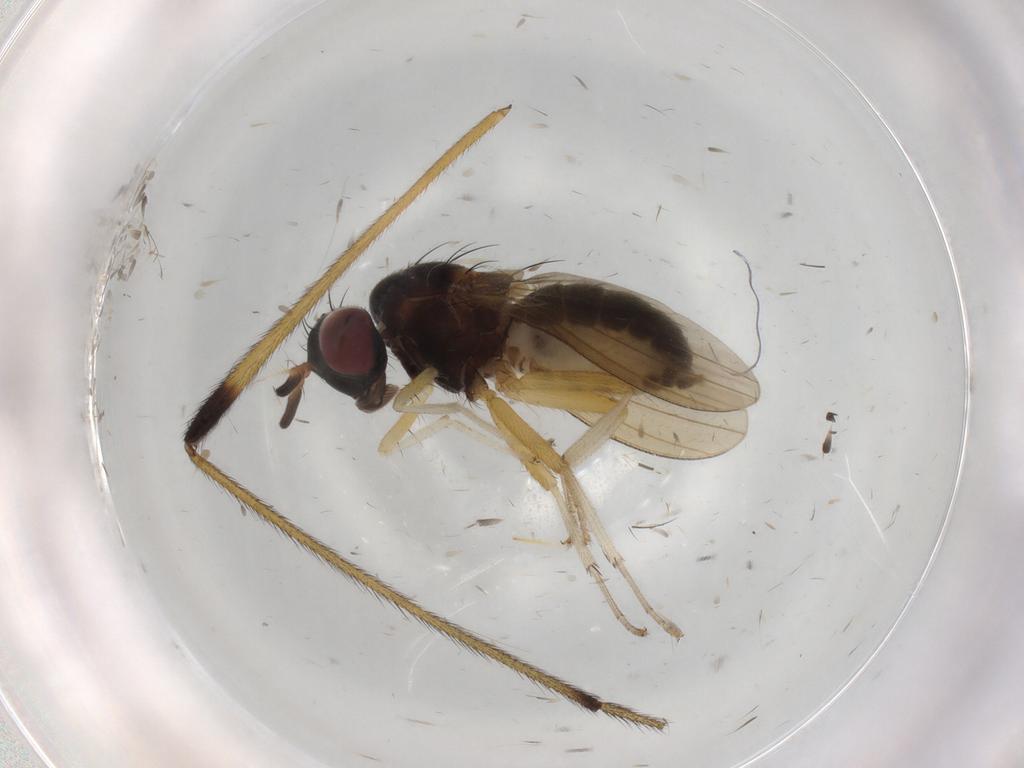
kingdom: Animalia
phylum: Arthropoda
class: Insecta
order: Diptera
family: Limoniidae
